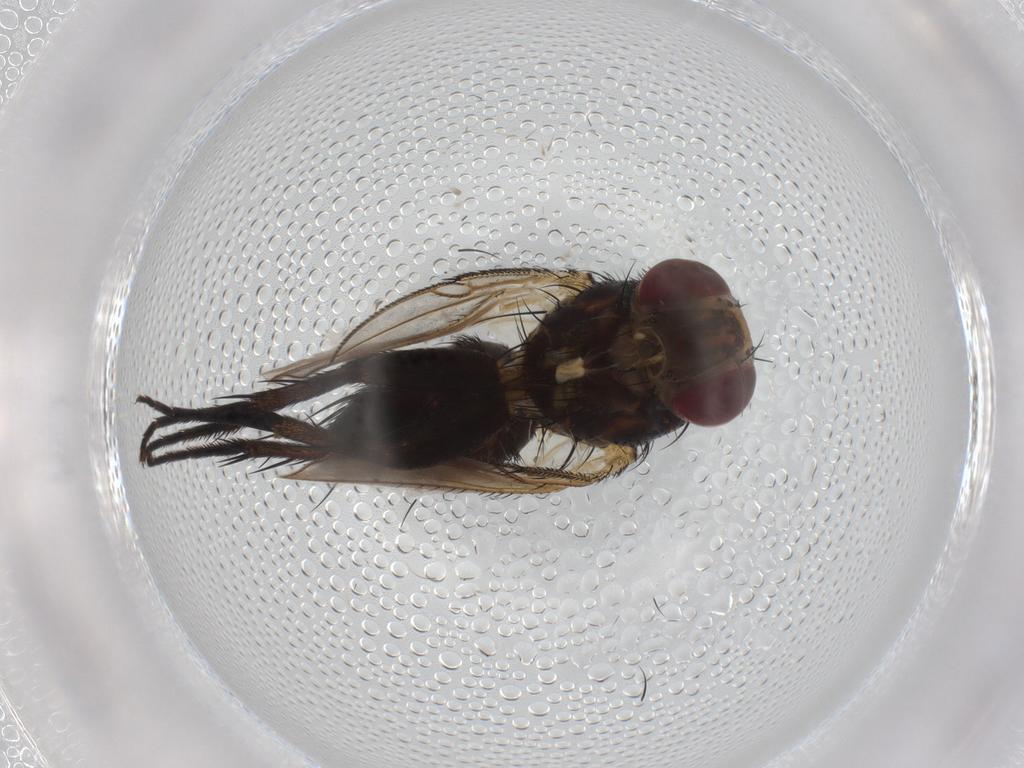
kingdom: Animalia
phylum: Arthropoda
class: Insecta
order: Diptera
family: Tachinidae
